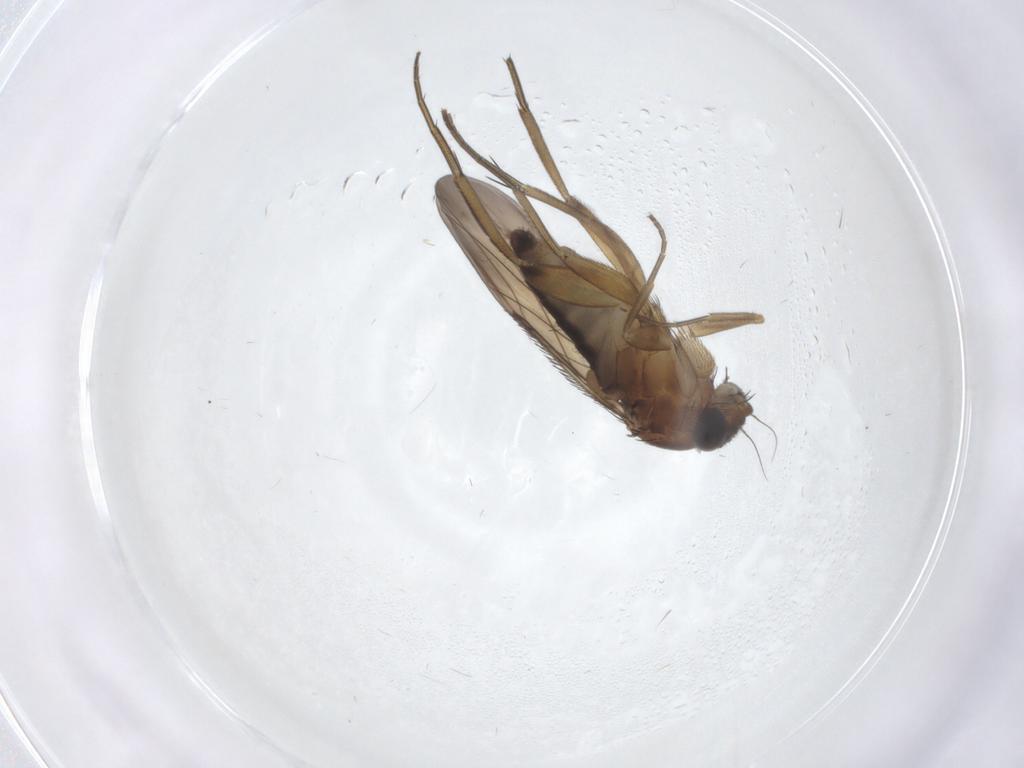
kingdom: Animalia
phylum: Arthropoda
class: Insecta
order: Diptera
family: Phoridae
